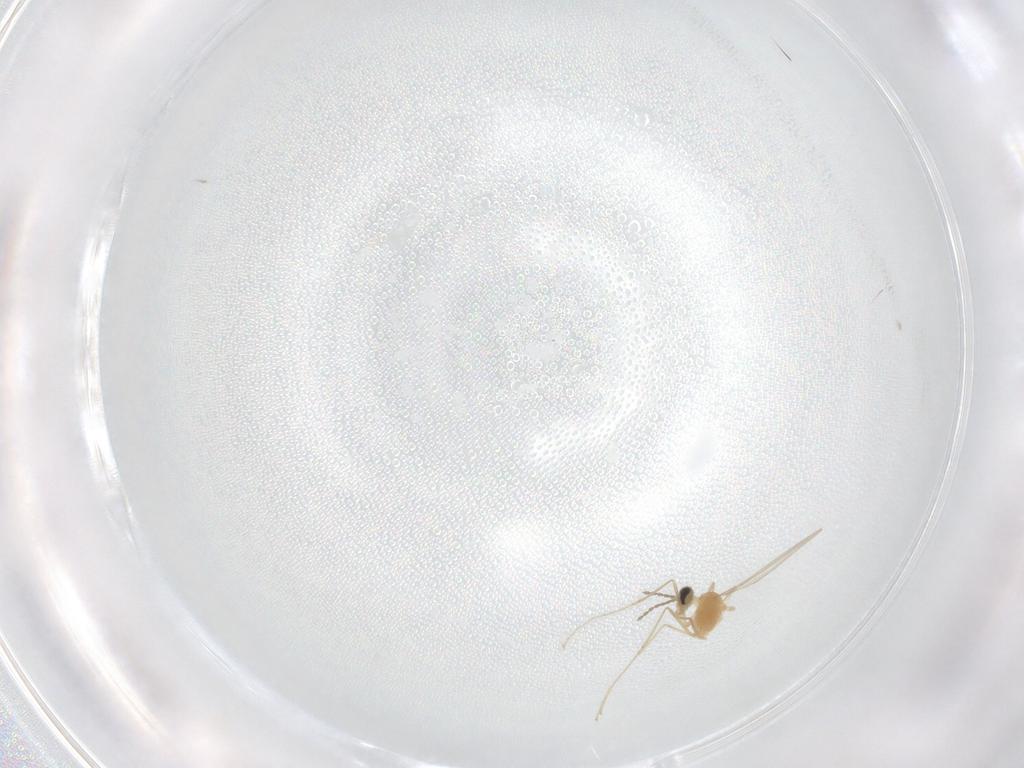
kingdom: Animalia
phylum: Arthropoda
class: Insecta
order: Diptera
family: Cecidomyiidae
